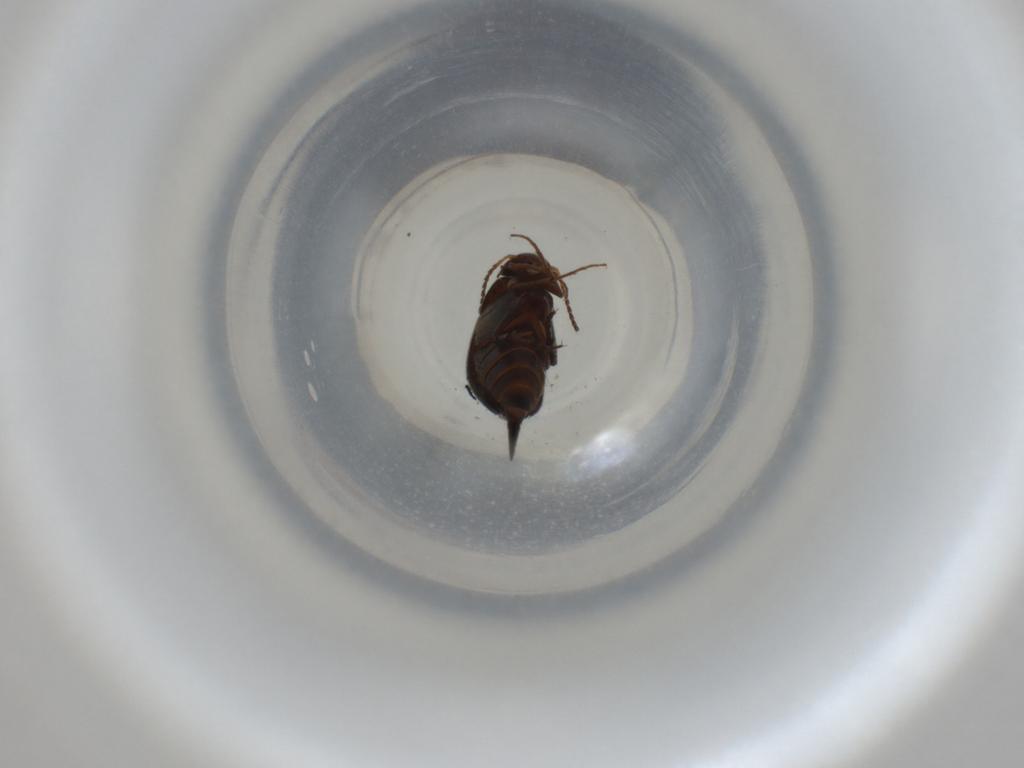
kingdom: Animalia
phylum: Arthropoda
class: Insecta
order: Coleoptera
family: Mordellidae
